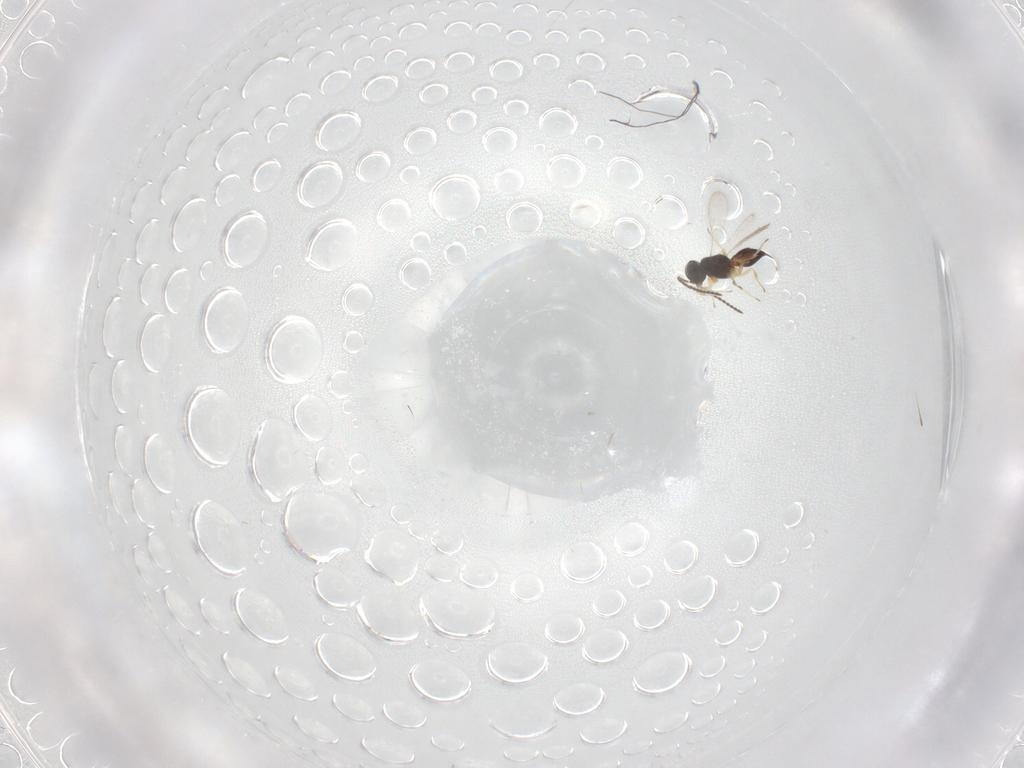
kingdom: Animalia
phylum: Arthropoda
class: Insecta
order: Hymenoptera
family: Scelionidae
